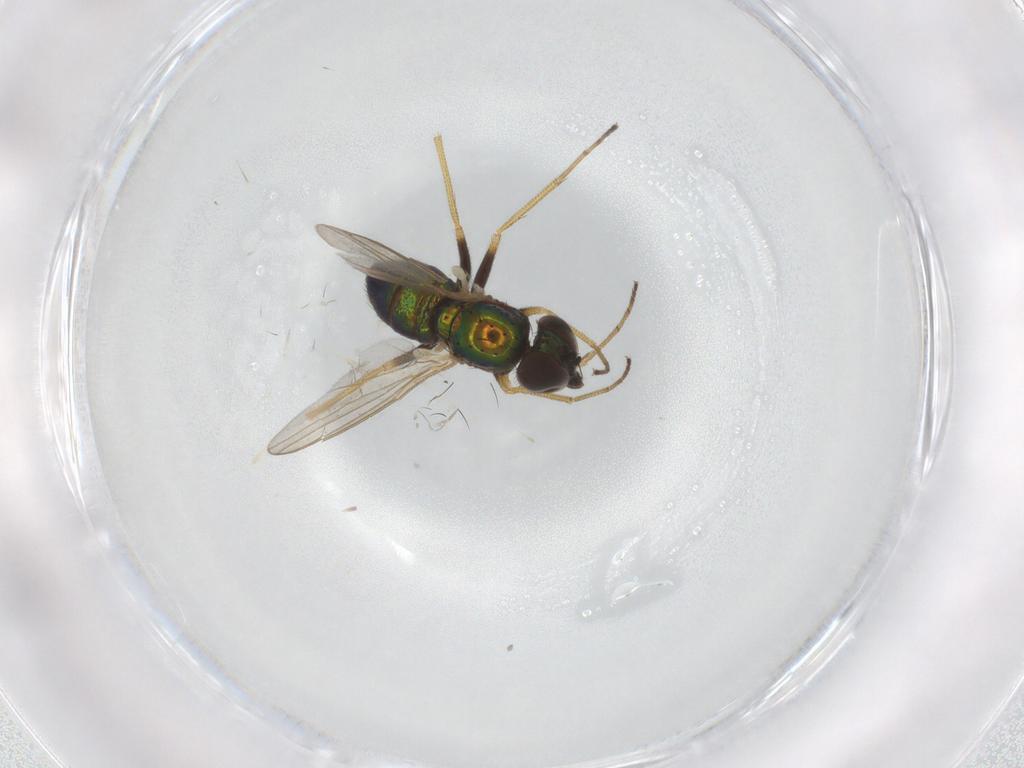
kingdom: Animalia
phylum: Arthropoda
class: Insecta
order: Diptera
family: Dolichopodidae
